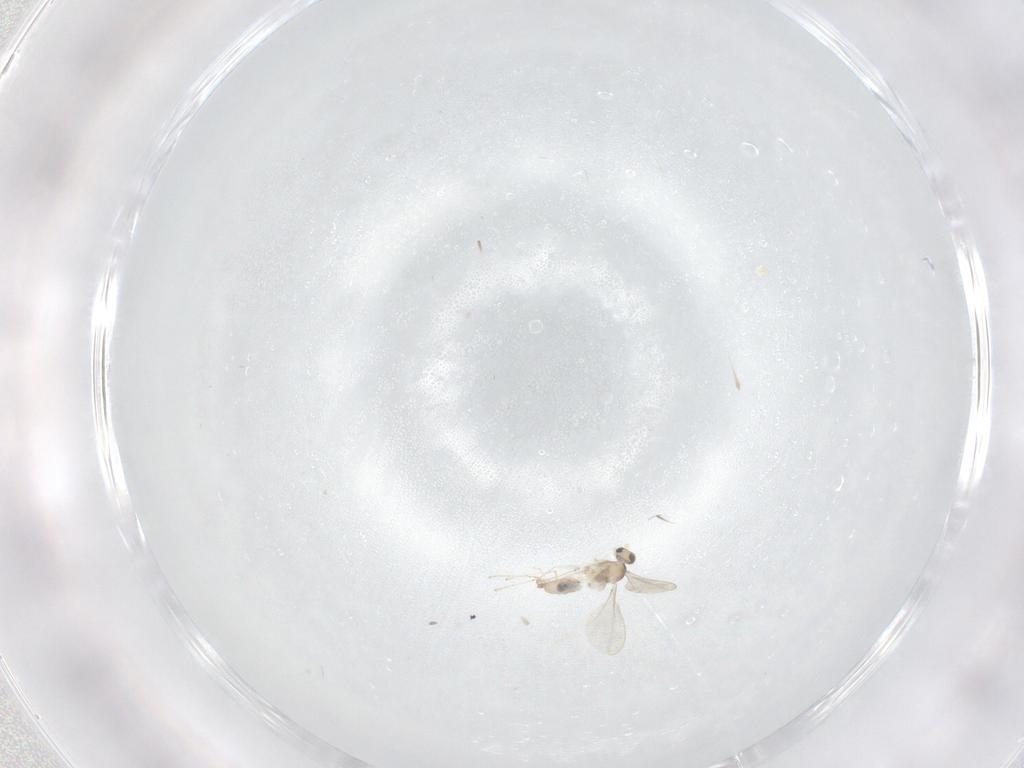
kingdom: Animalia
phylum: Arthropoda
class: Insecta
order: Diptera
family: Cecidomyiidae
